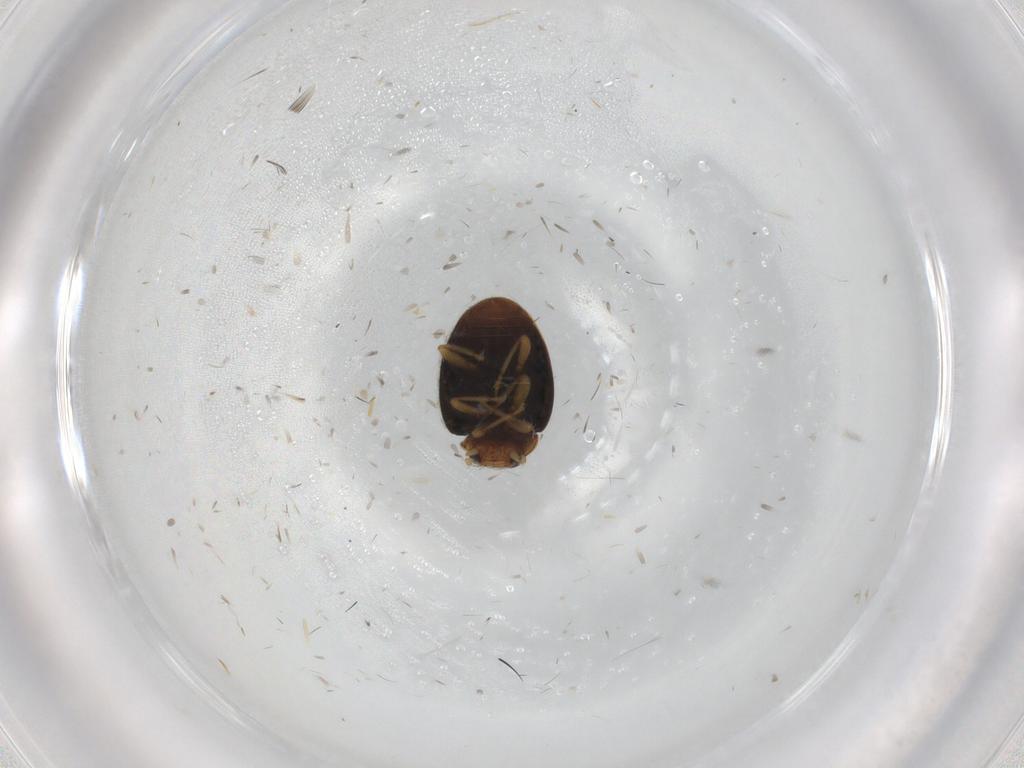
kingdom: Animalia
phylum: Arthropoda
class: Insecta
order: Coleoptera
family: Coccinellidae
